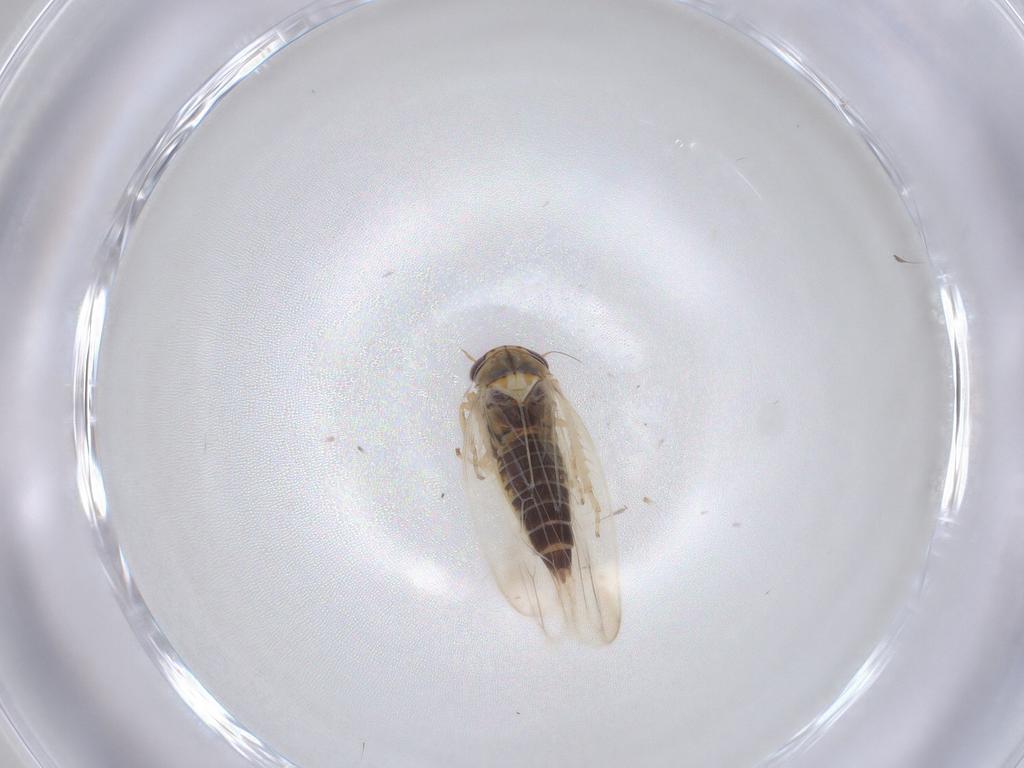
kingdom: Animalia
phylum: Arthropoda
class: Insecta
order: Hemiptera
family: Cicadellidae
